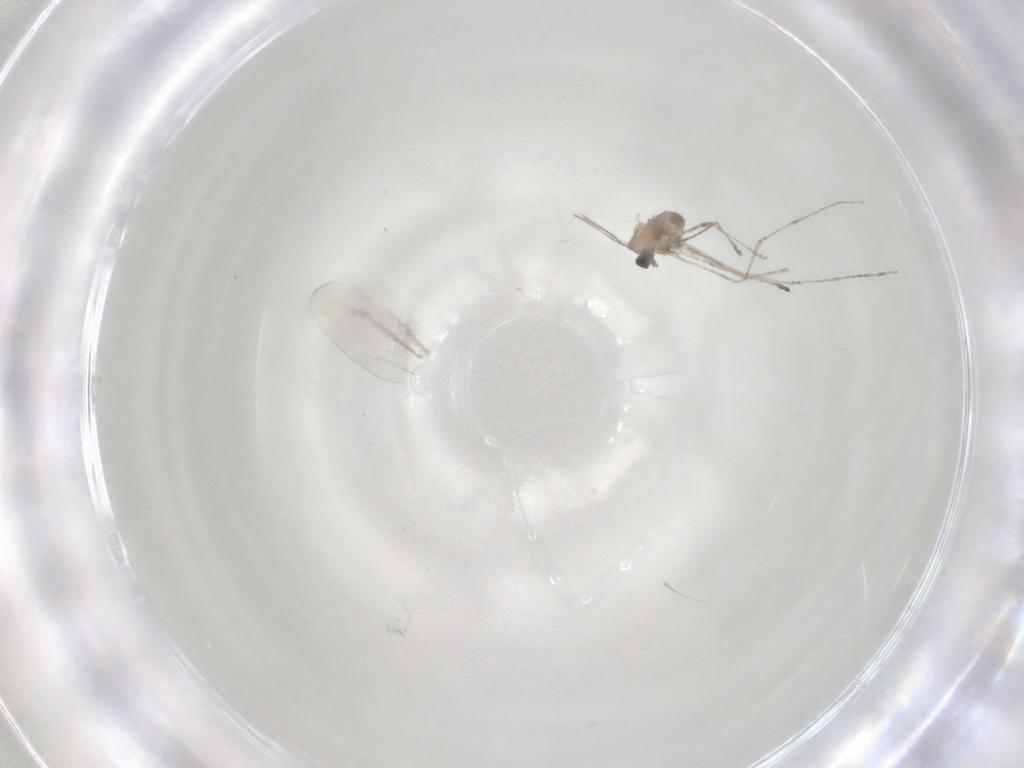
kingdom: Animalia
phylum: Arthropoda
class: Insecta
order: Diptera
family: Cecidomyiidae
